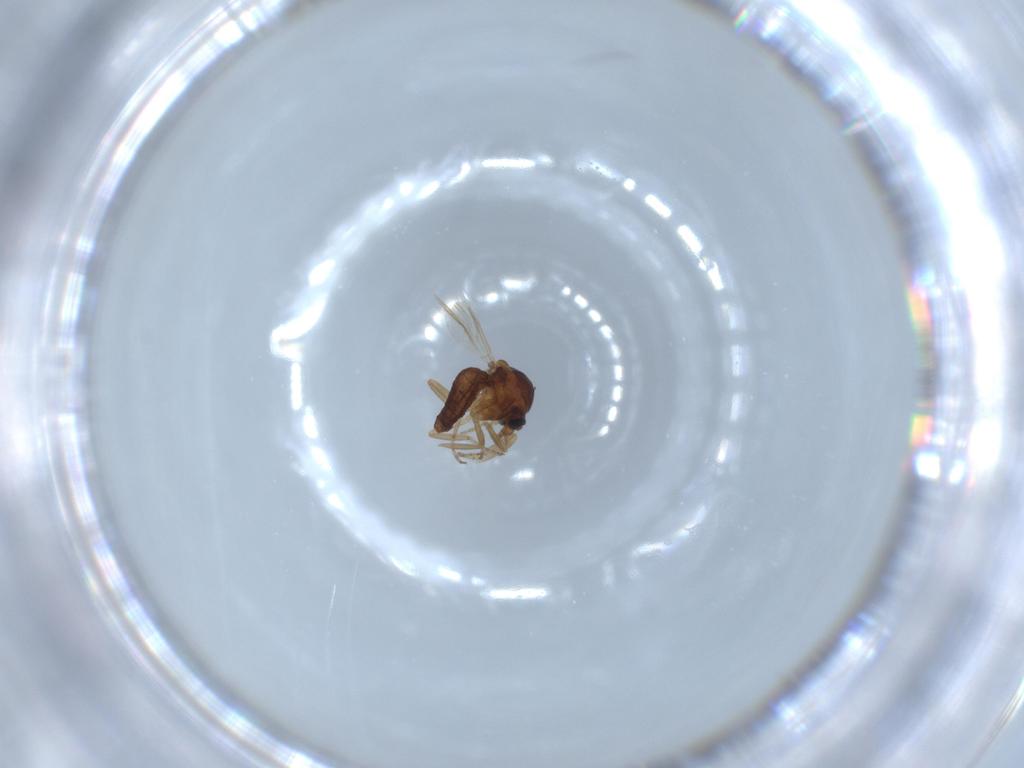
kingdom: Animalia
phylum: Arthropoda
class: Insecta
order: Diptera
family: Ceratopogonidae
